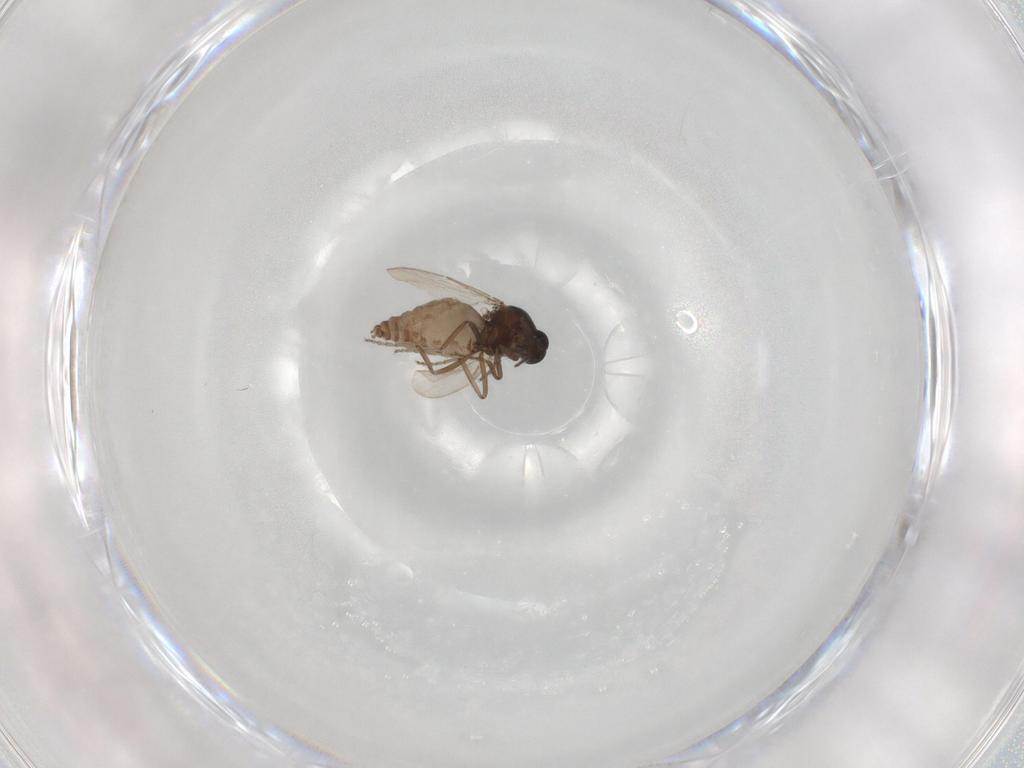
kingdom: Animalia
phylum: Arthropoda
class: Insecta
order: Diptera
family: Ceratopogonidae
